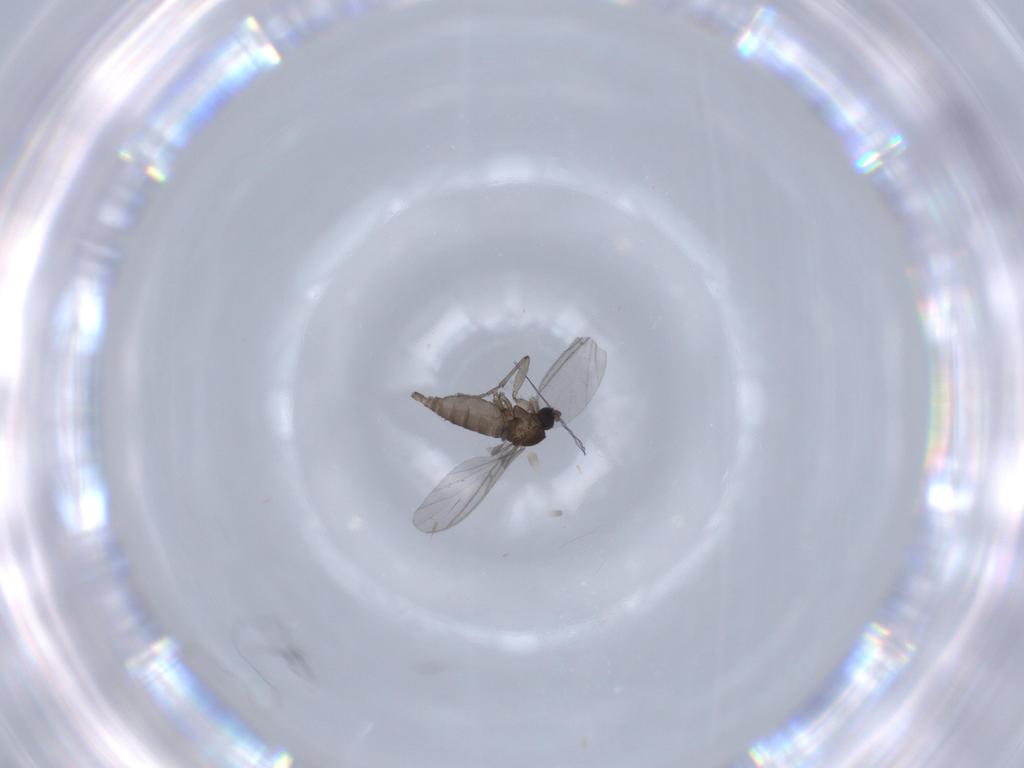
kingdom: Animalia
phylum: Arthropoda
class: Insecta
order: Diptera
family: Sciaridae
